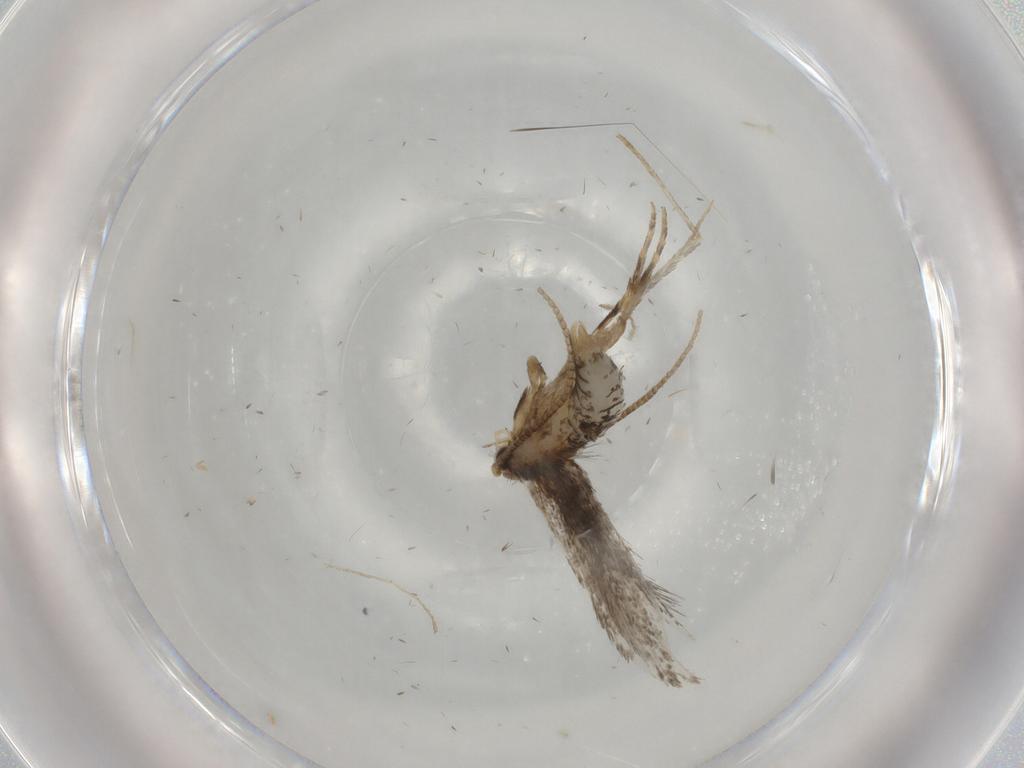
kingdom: Animalia
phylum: Arthropoda
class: Insecta
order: Lepidoptera
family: Tineidae
